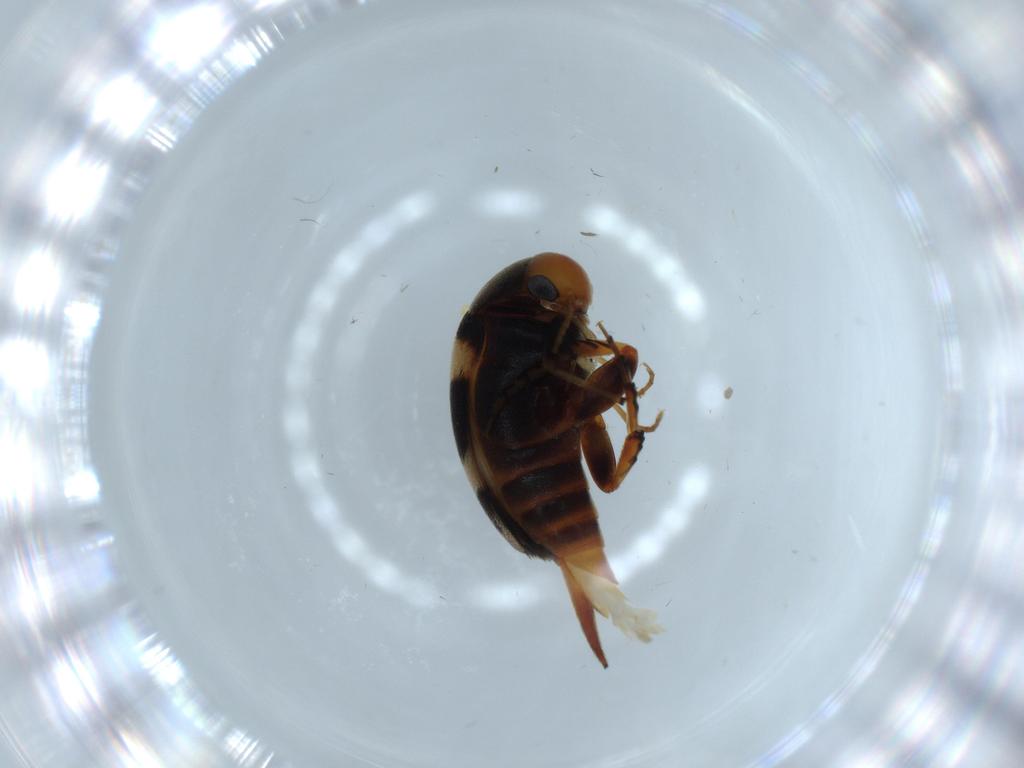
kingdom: Animalia
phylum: Arthropoda
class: Insecta
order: Coleoptera
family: Mordellidae
